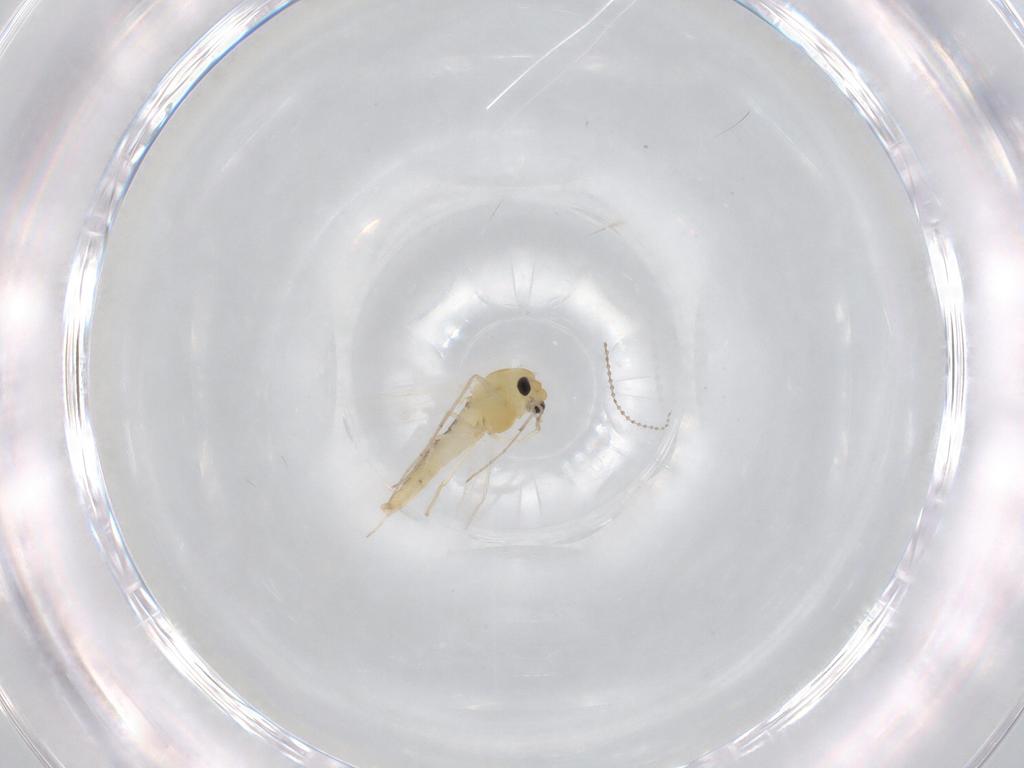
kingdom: Animalia
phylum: Arthropoda
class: Insecta
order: Diptera
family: Chironomidae
